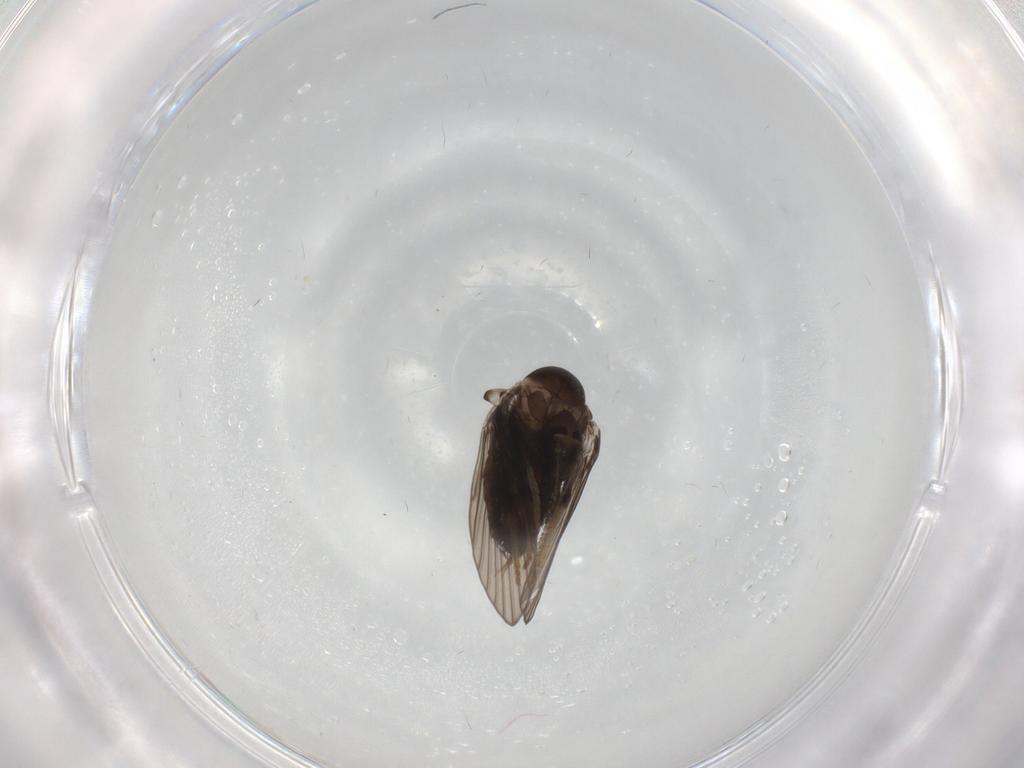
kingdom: Animalia
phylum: Arthropoda
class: Insecta
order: Diptera
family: Psychodidae
